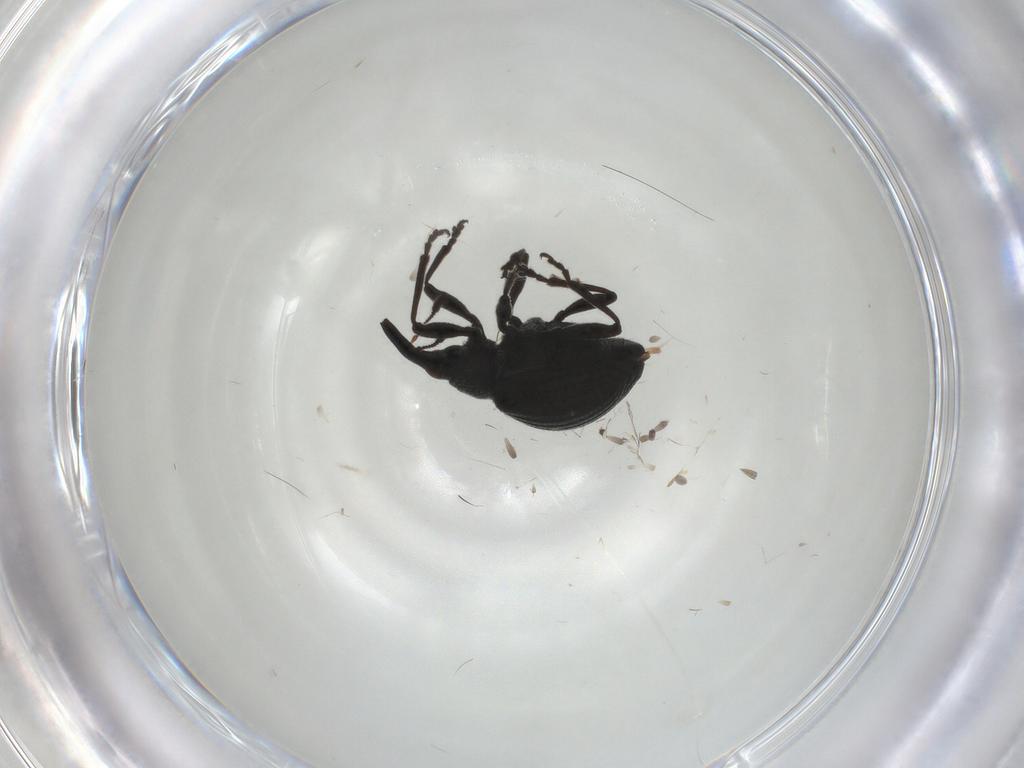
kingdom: Animalia
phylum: Arthropoda
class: Insecta
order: Coleoptera
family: Brentidae
